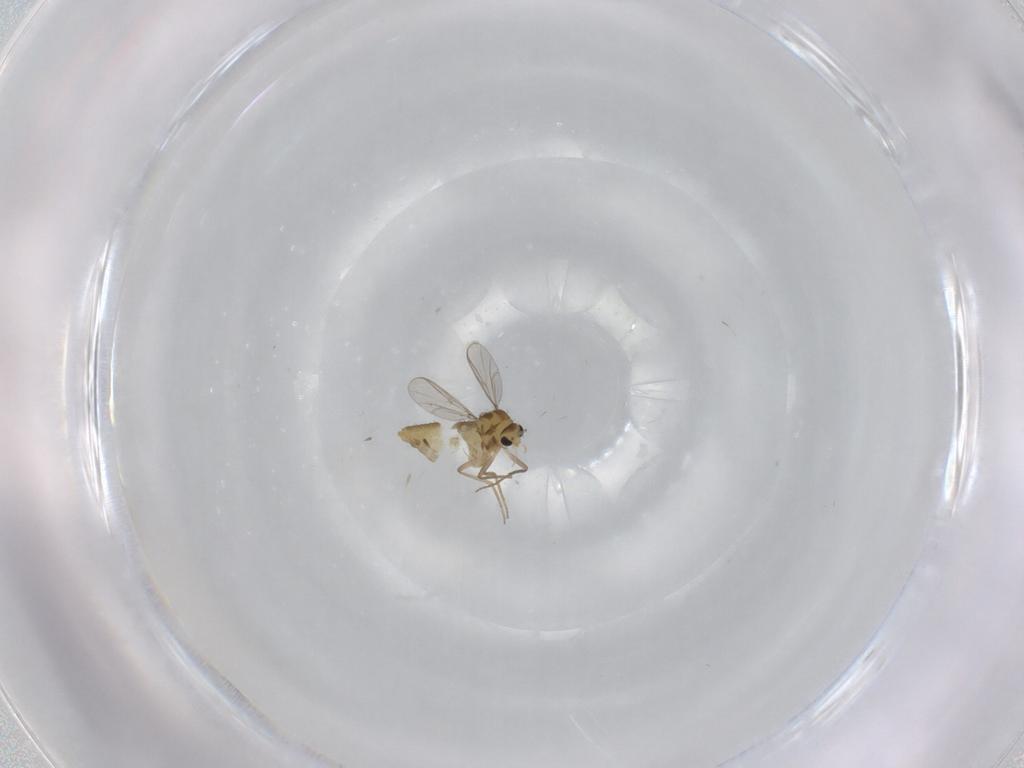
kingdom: Animalia
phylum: Arthropoda
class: Insecta
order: Diptera
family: Chironomidae
